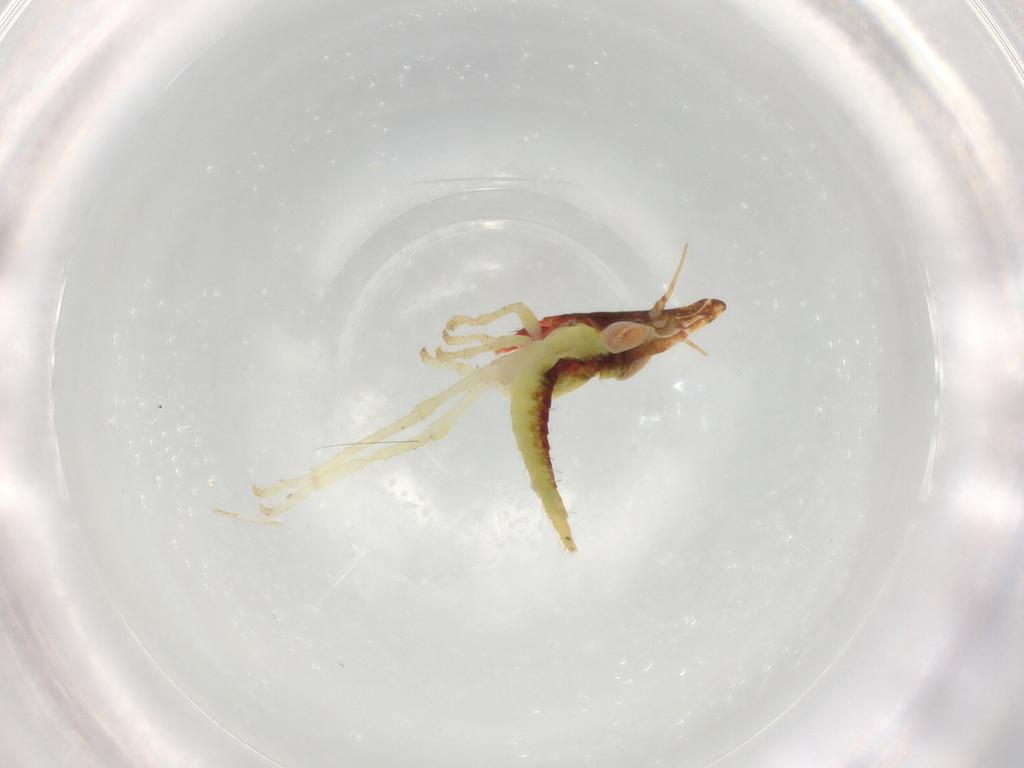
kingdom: Animalia
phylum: Arthropoda
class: Insecta
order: Hemiptera
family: Cicadellidae
